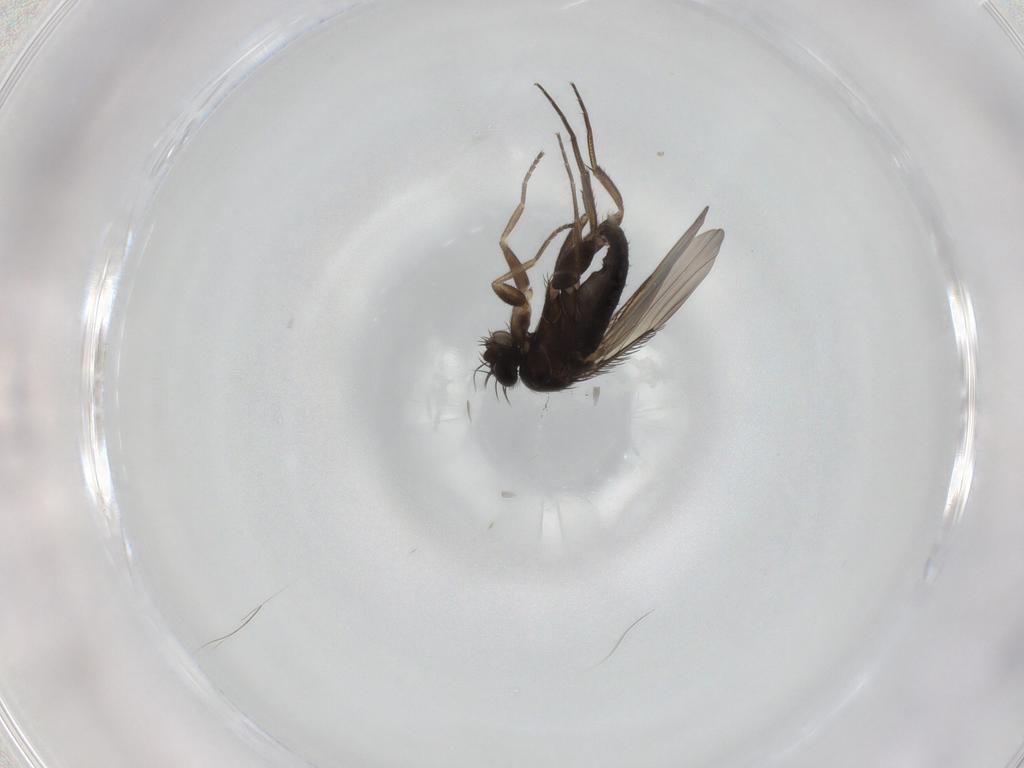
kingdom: Animalia
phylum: Arthropoda
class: Insecta
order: Diptera
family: Phoridae
